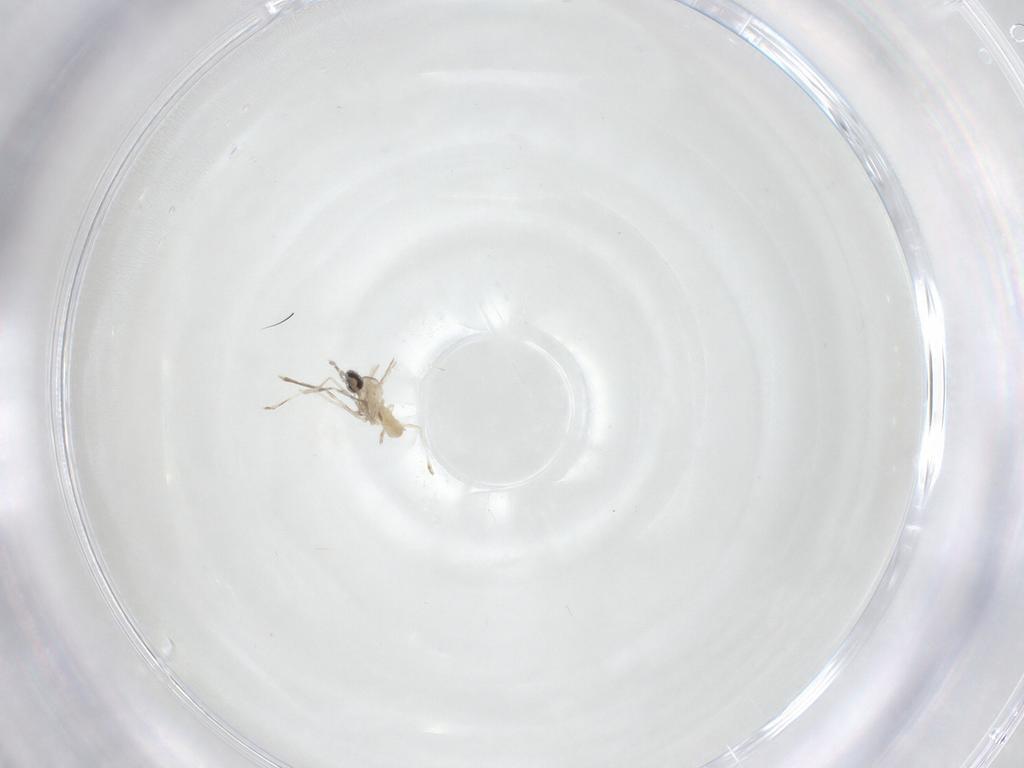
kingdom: Animalia
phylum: Arthropoda
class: Insecta
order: Diptera
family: Cecidomyiidae
